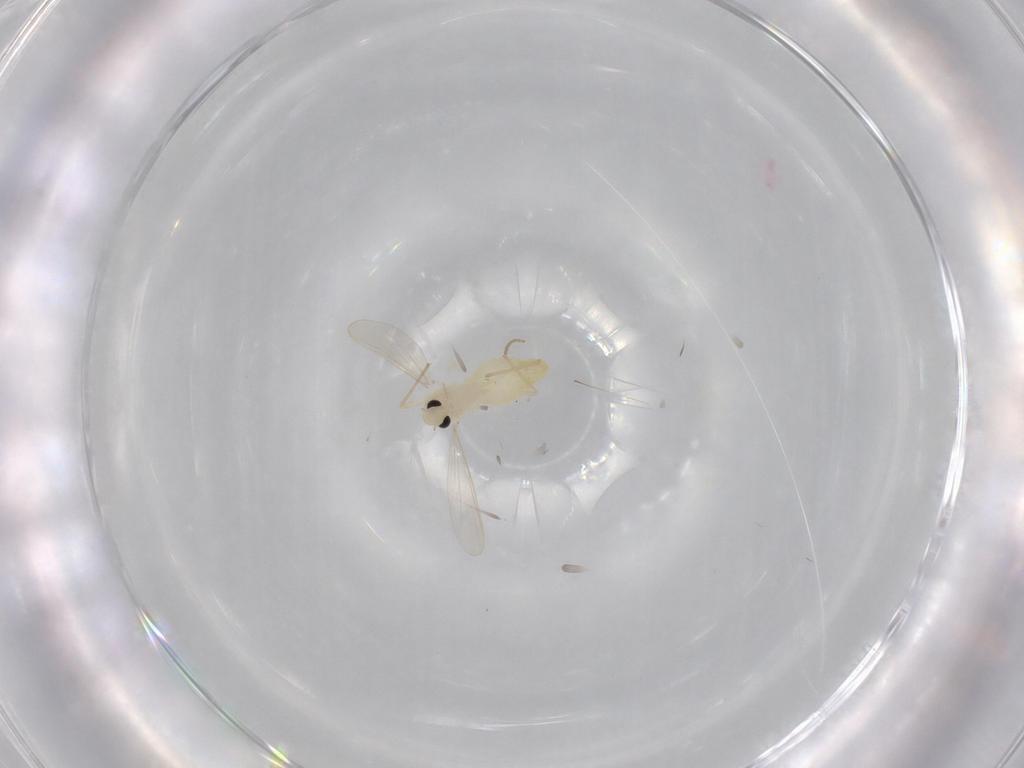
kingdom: Animalia
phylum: Arthropoda
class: Insecta
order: Diptera
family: Chironomidae
